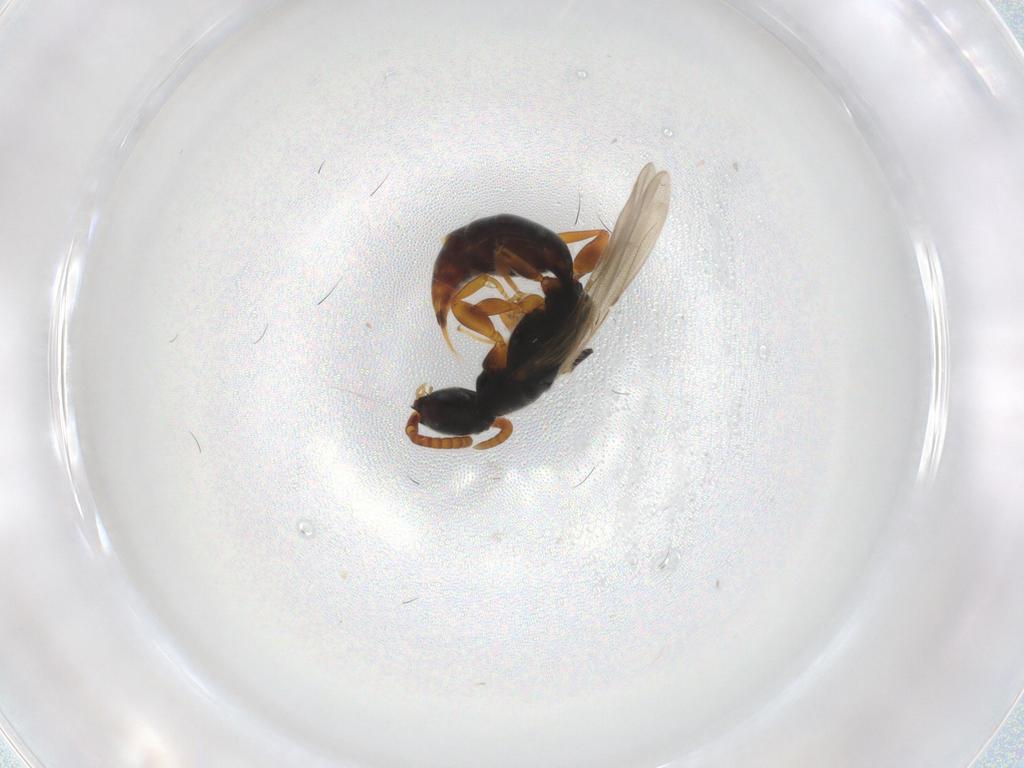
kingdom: Animalia
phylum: Arthropoda
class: Insecta
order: Hymenoptera
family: Bethylidae
